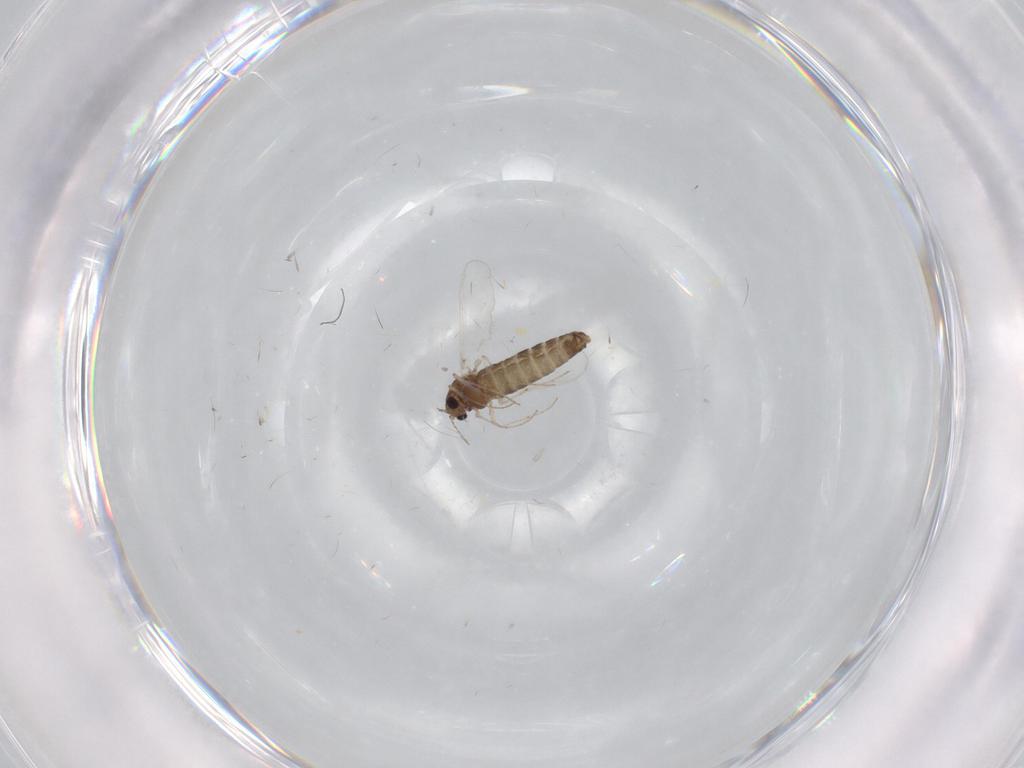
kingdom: Animalia
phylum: Arthropoda
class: Insecta
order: Diptera
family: Chironomidae
